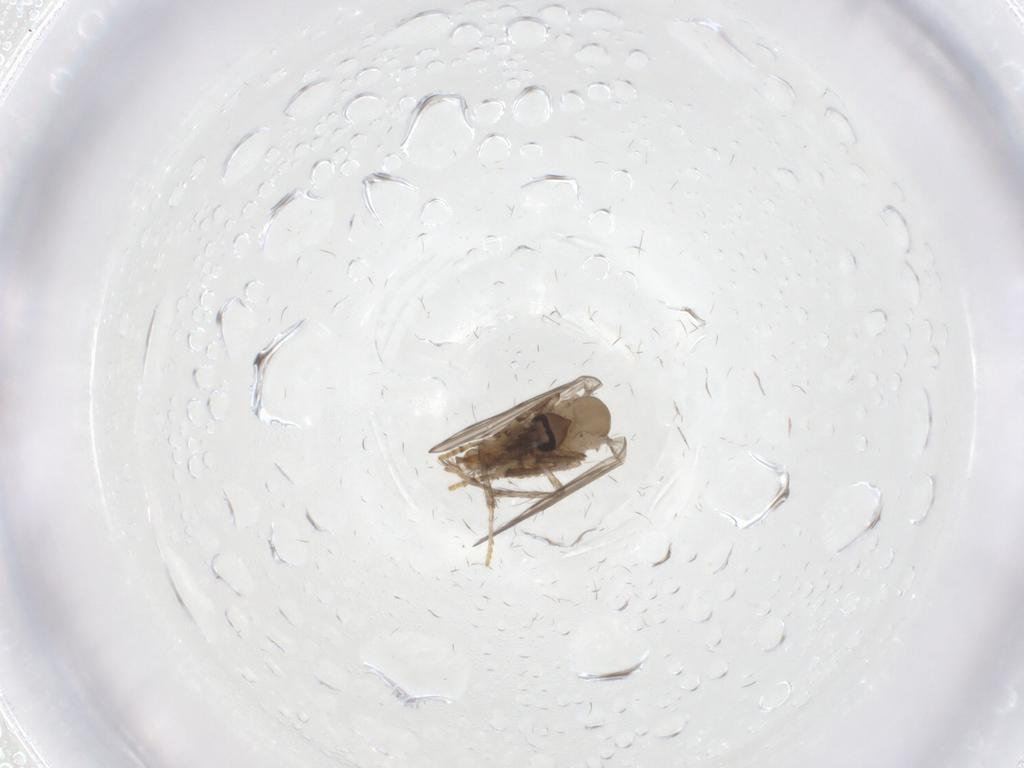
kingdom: Animalia
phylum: Arthropoda
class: Insecta
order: Diptera
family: Psychodidae
